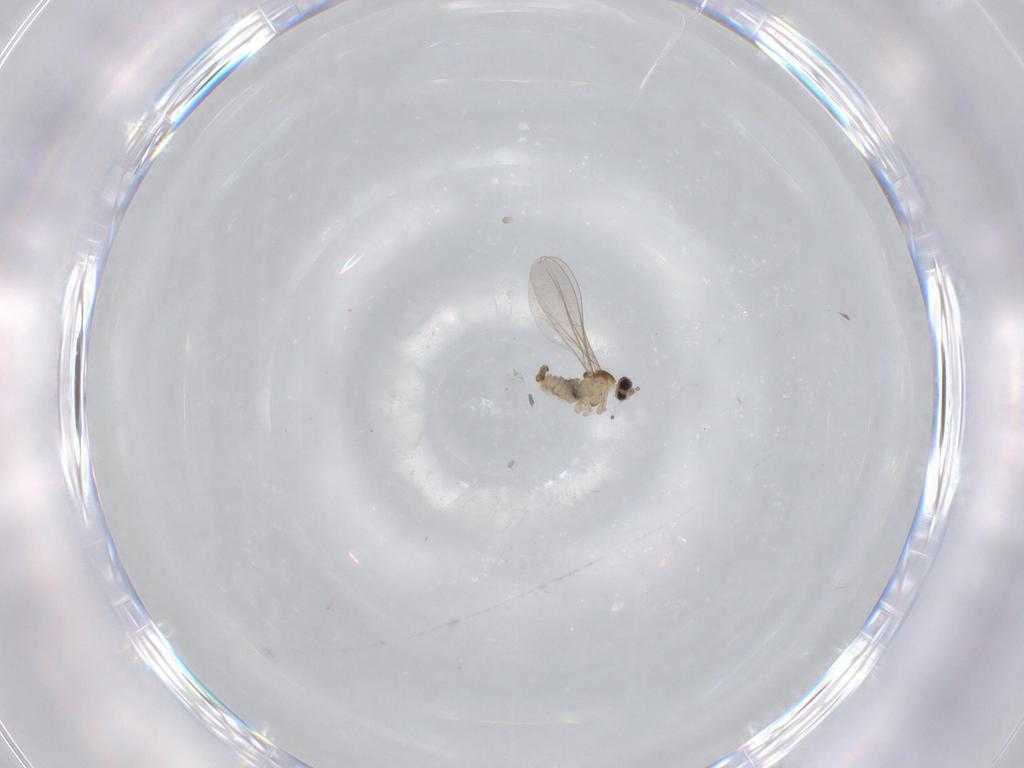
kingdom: Animalia
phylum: Arthropoda
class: Insecta
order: Diptera
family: Cecidomyiidae
